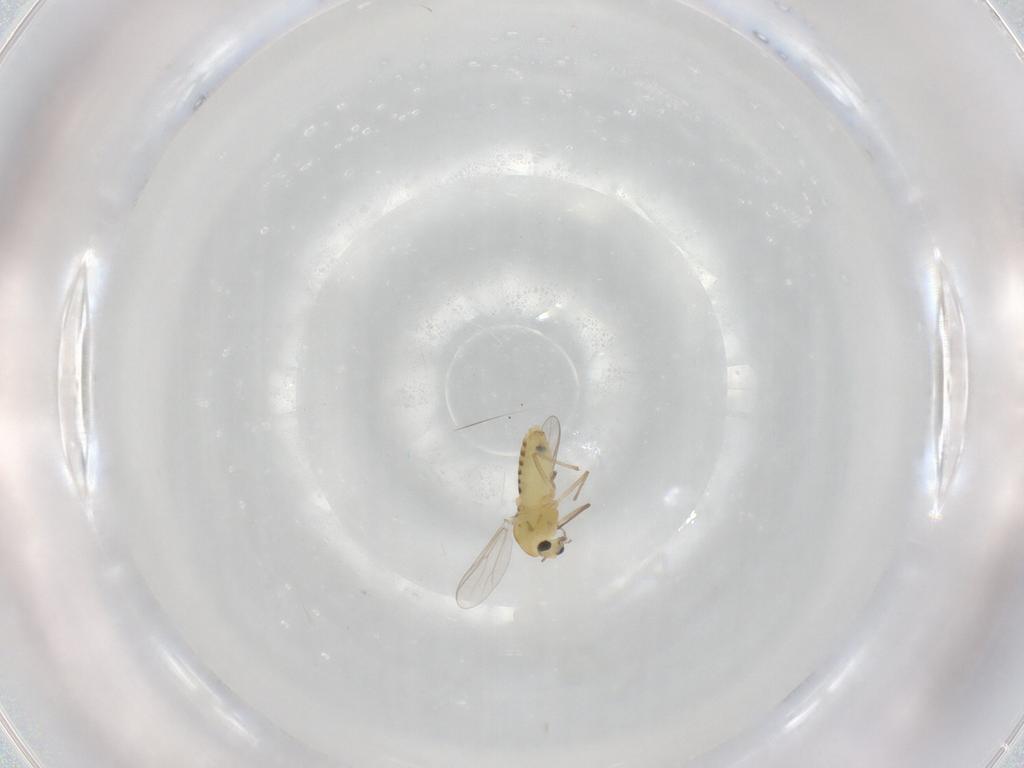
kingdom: Animalia
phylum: Arthropoda
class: Insecta
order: Diptera
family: Chironomidae
